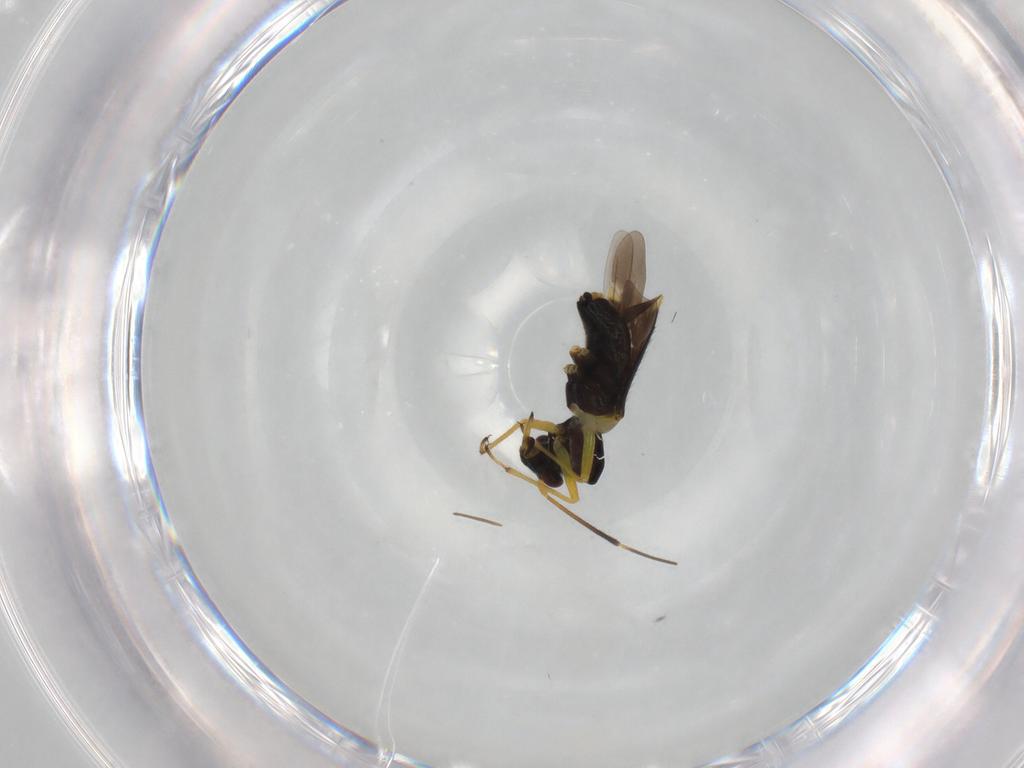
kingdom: Animalia
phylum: Arthropoda
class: Insecta
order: Hemiptera
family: Miridae
